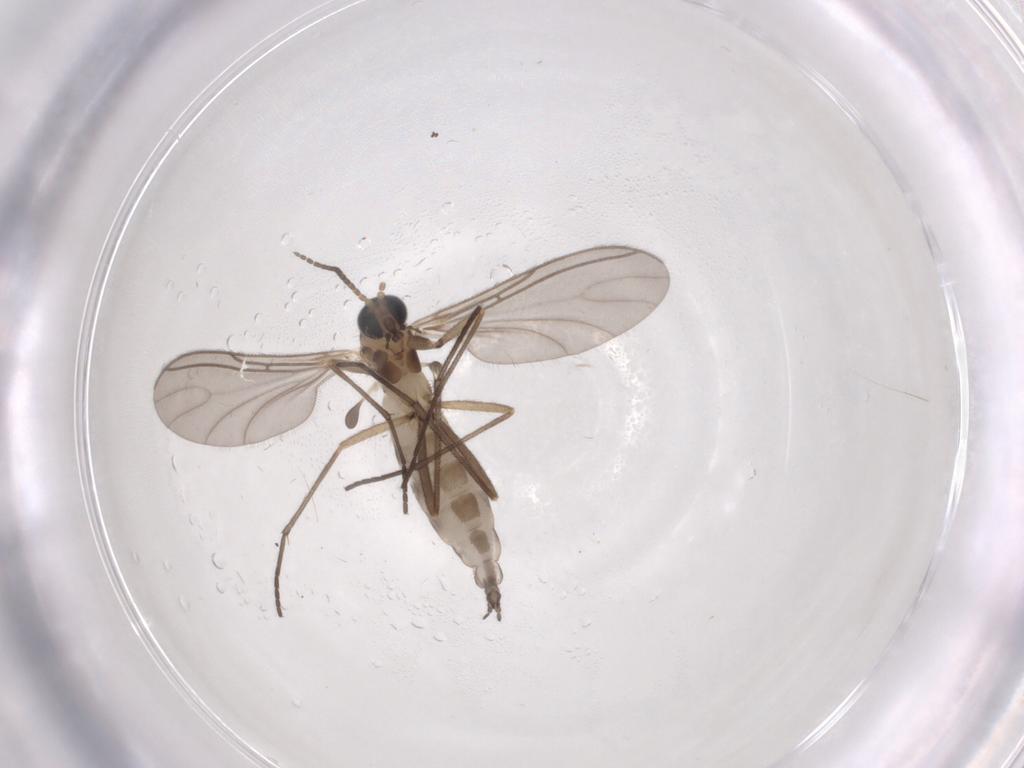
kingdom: Animalia
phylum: Arthropoda
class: Insecta
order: Diptera
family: Sciaridae
